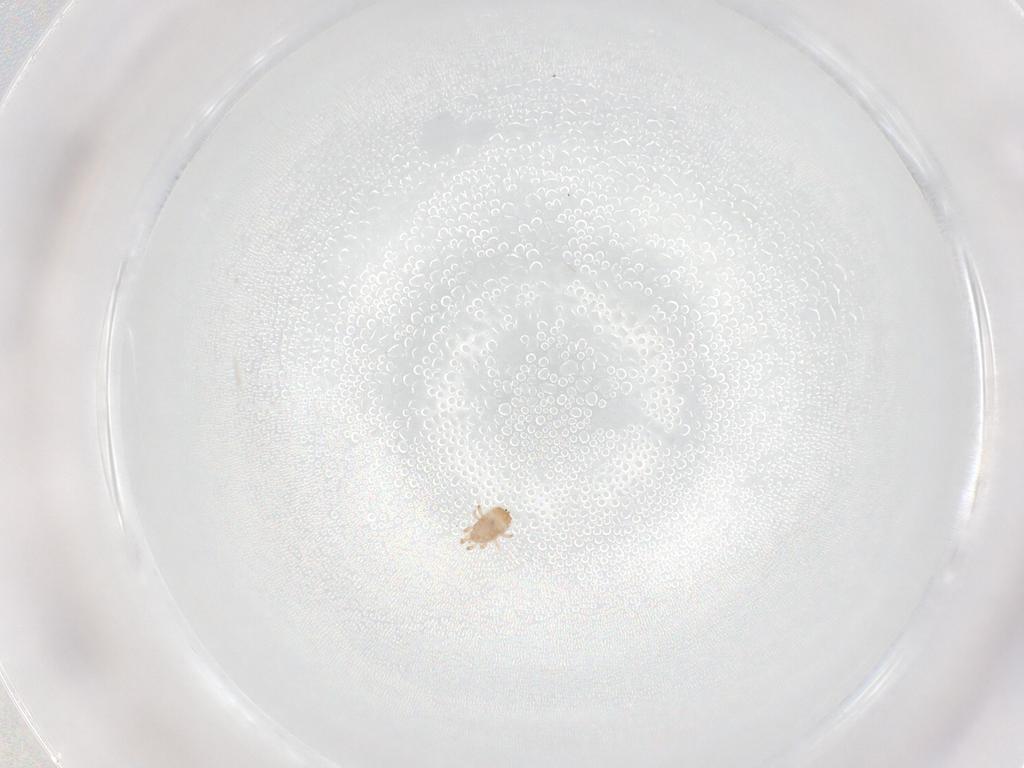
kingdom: Animalia
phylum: Arthropoda
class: Arachnida
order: Mesostigmata
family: Ascidae
